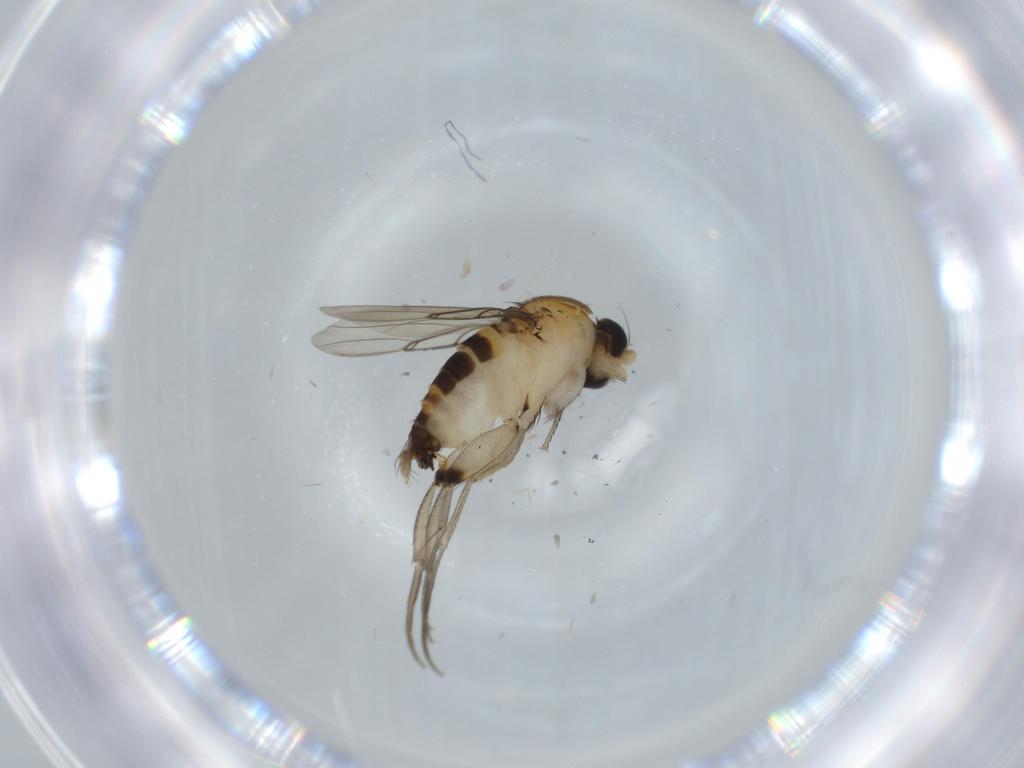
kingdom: Animalia
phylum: Arthropoda
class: Insecta
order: Diptera
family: Phoridae
